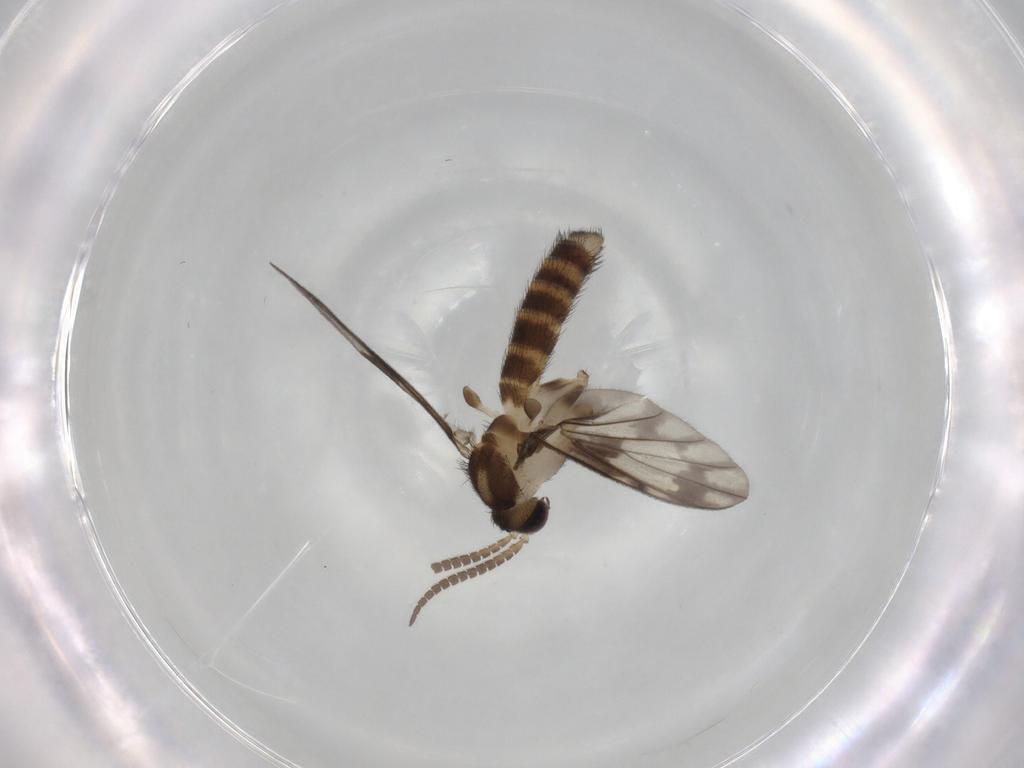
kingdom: Animalia
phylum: Arthropoda
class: Insecta
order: Diptera
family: Keroplatidae
